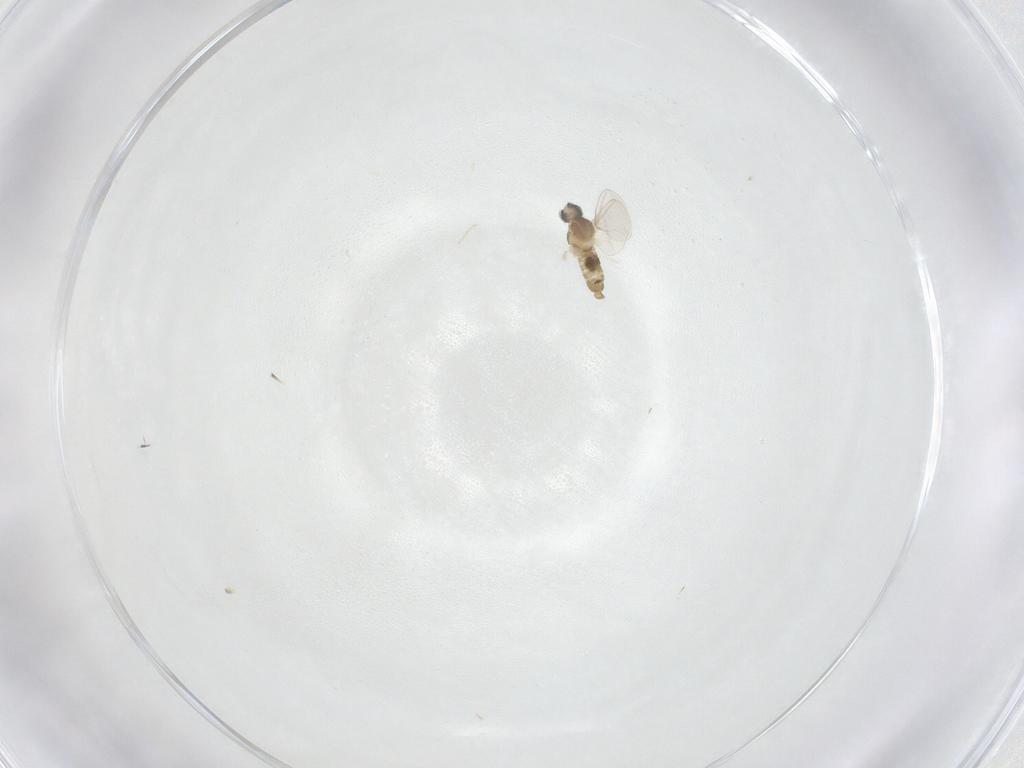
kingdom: Animalia
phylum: Arthropoda
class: Insecta
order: Diptera
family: Cecidomyiidae
